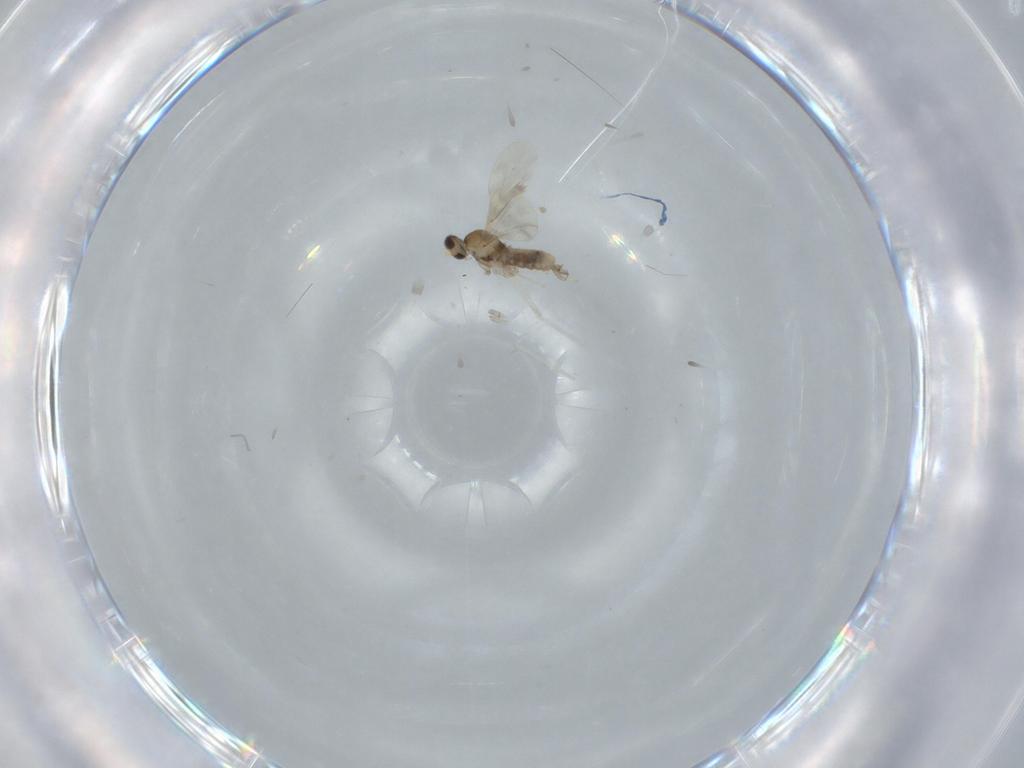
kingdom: Animalia
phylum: Arthropoda
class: Insecta
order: Diptera
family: Cecidomyiidae
